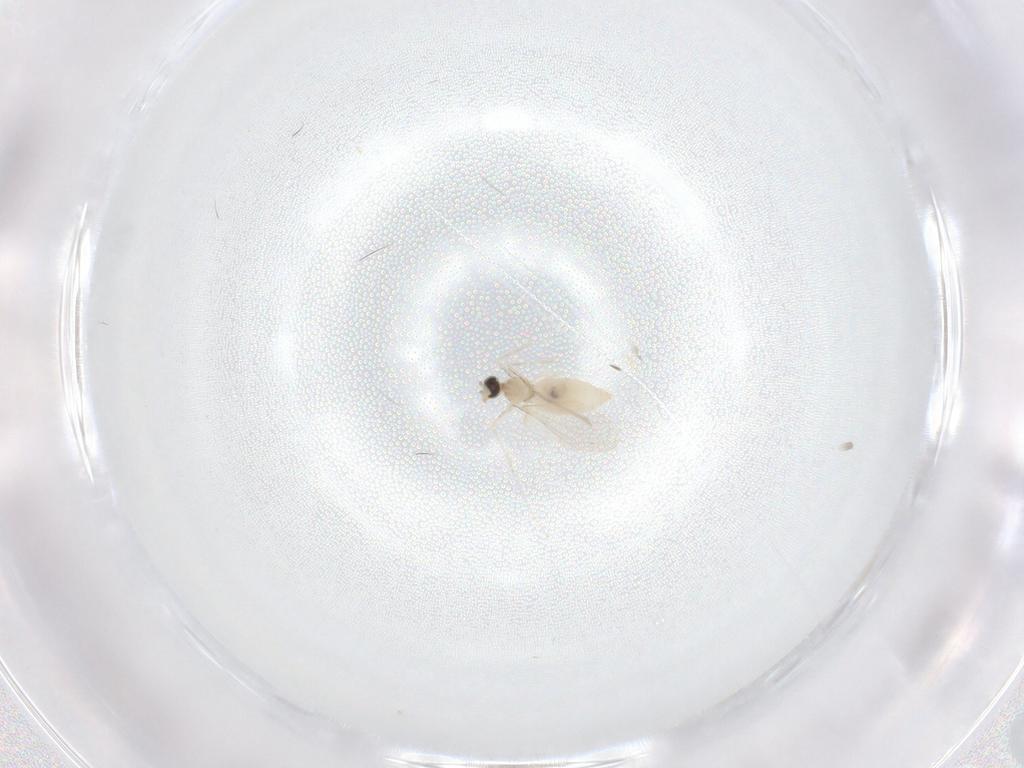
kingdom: Animalia
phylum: Arthropoda
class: Insecta
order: Diptera
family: Cecidomyiidae
